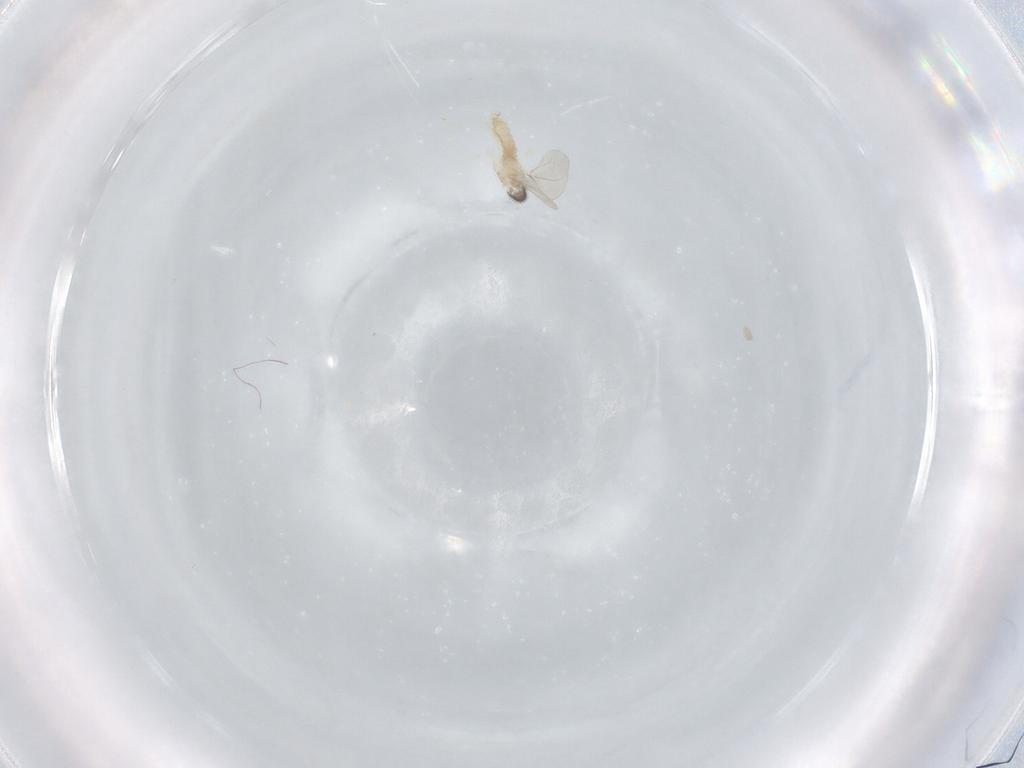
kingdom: Animalia
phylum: Arthropoda
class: Insecta
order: Diptera
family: Cecidomyiidae
